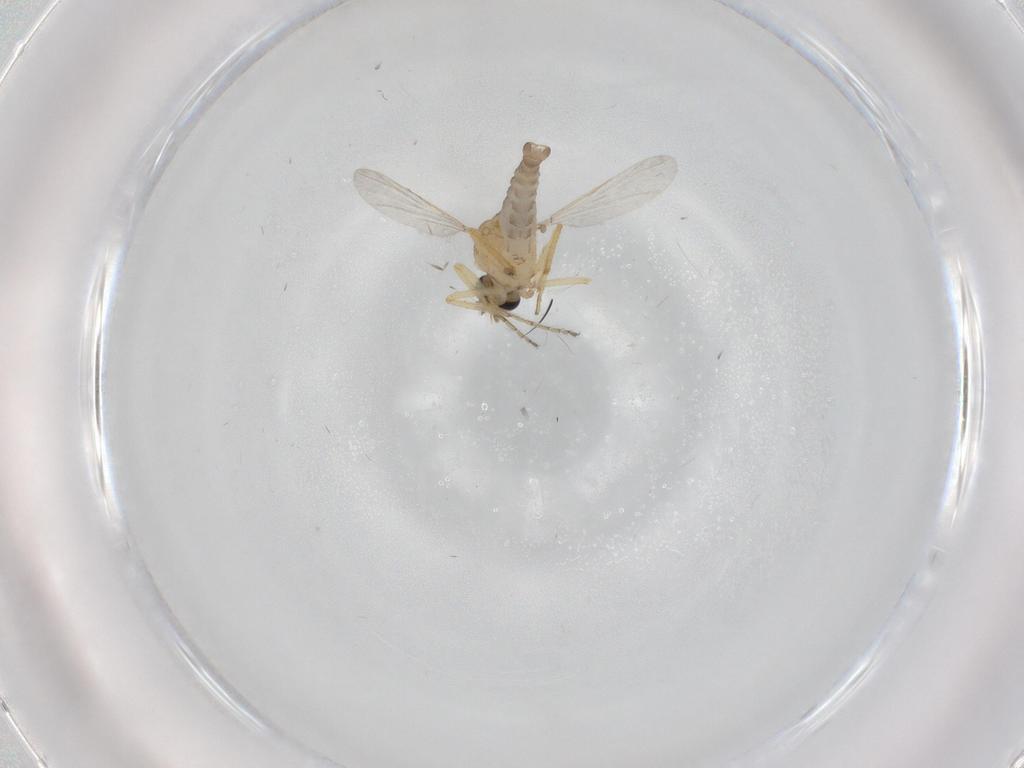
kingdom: Animalia
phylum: Arthropoda
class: Insecta
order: Diptera
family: Ceratopogonidae
